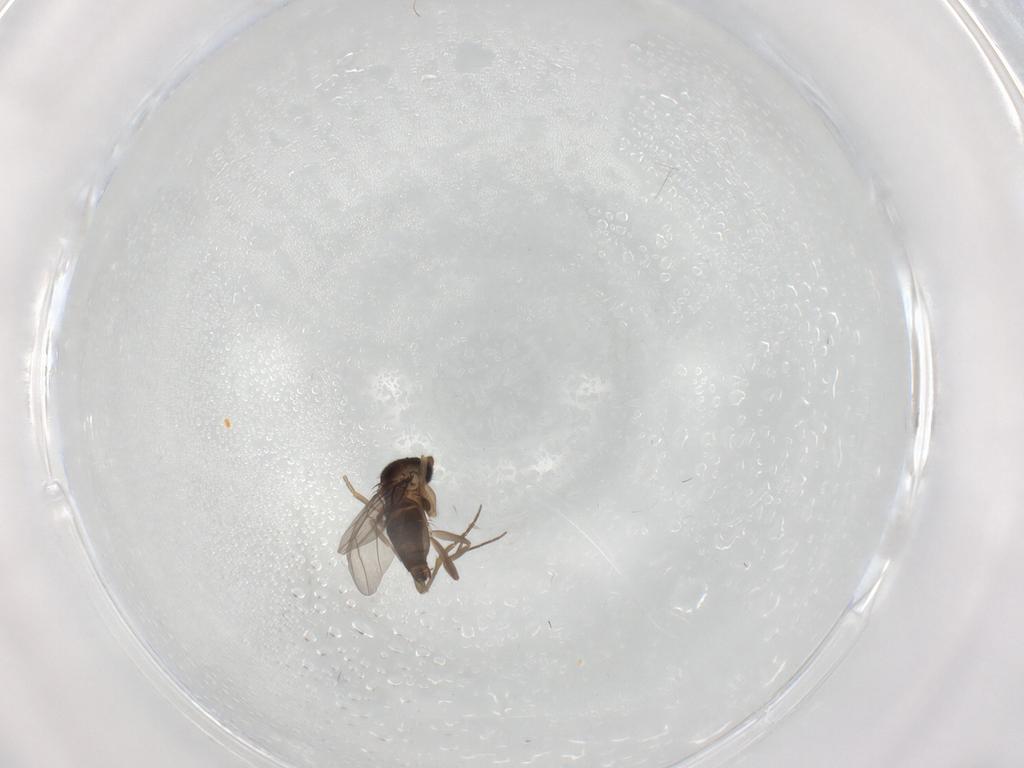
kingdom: Animalia
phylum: Arthropoda
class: Insecta
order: Diptera
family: Phoridae
